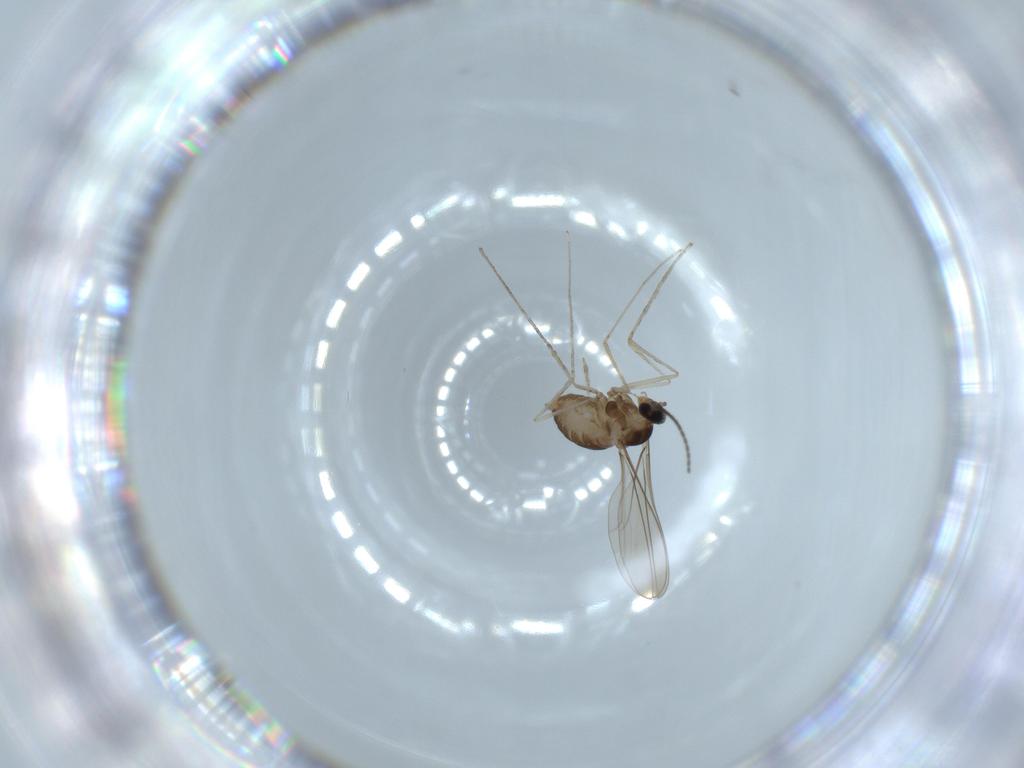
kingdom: Animalia
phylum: Arthropoda
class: Insecta
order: Diptera
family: Cecidomyiidae
